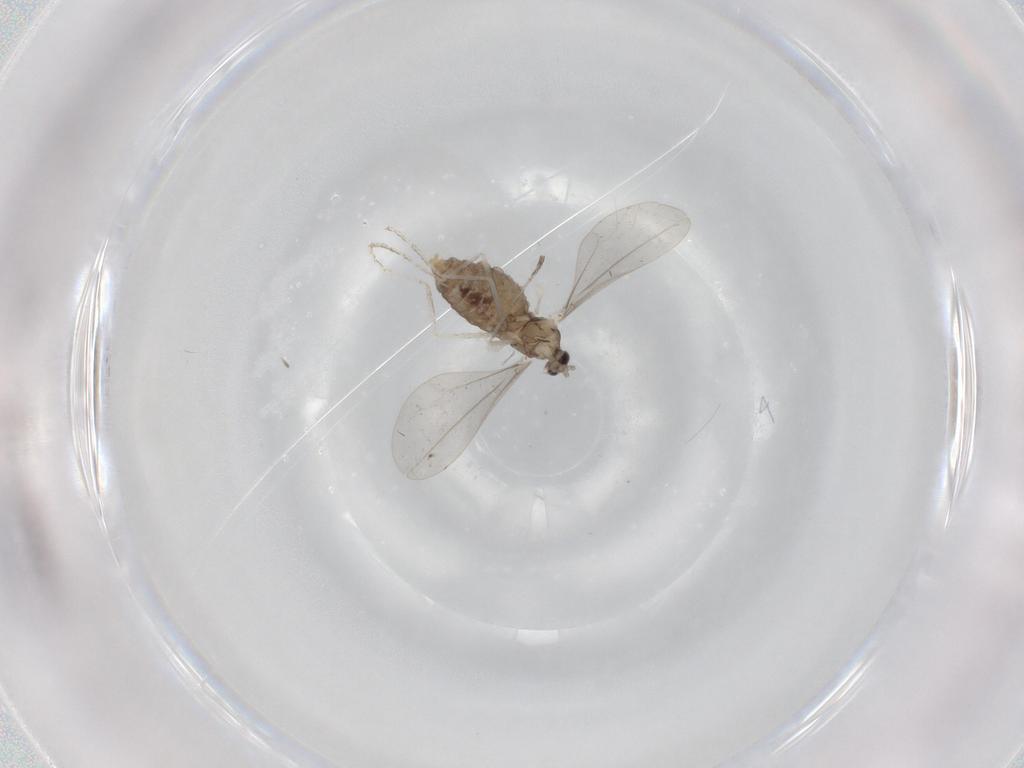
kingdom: Animalia
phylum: Arthropoda
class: Insecta
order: Diptera
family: Cecidomyiidae
